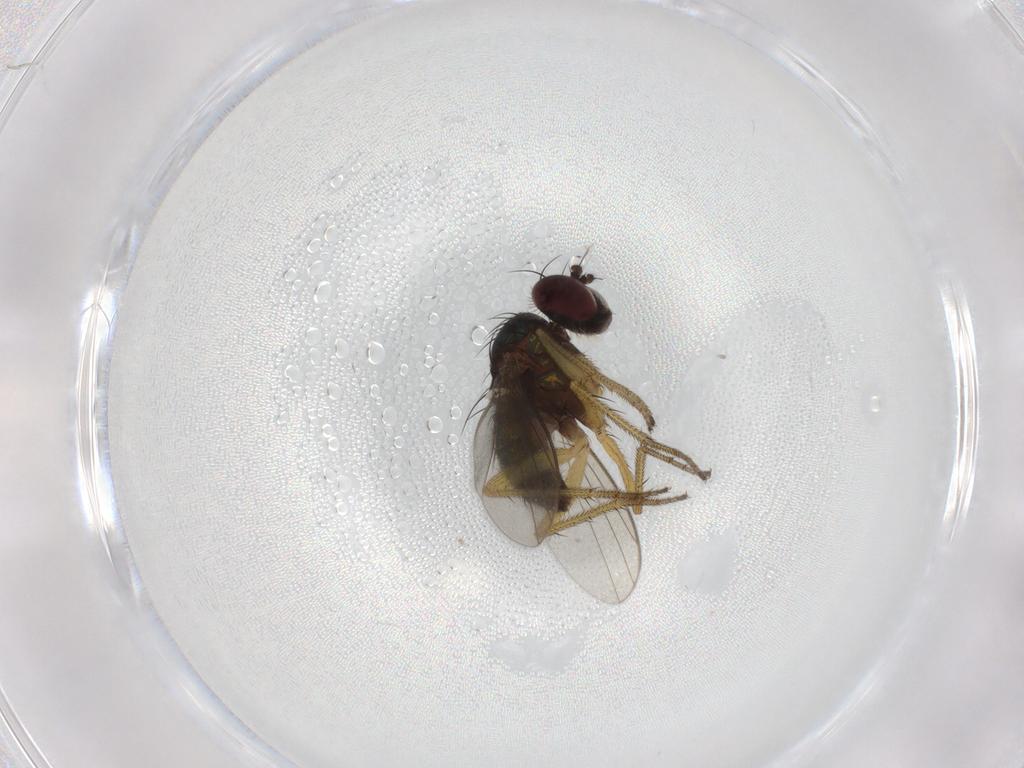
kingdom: Animalia
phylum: Arthropoda
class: Insecta
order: Diptera
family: Dolichopodidae
